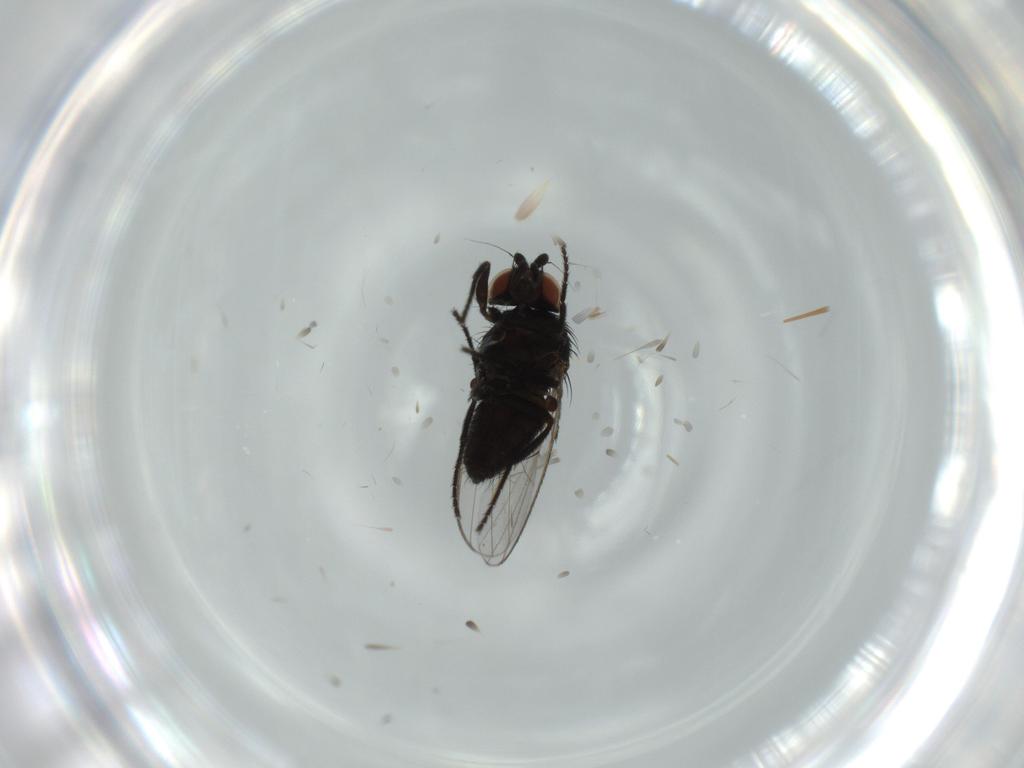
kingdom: Animalia
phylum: Arthropoda
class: Insecta
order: Diptera
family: Milichiidae
